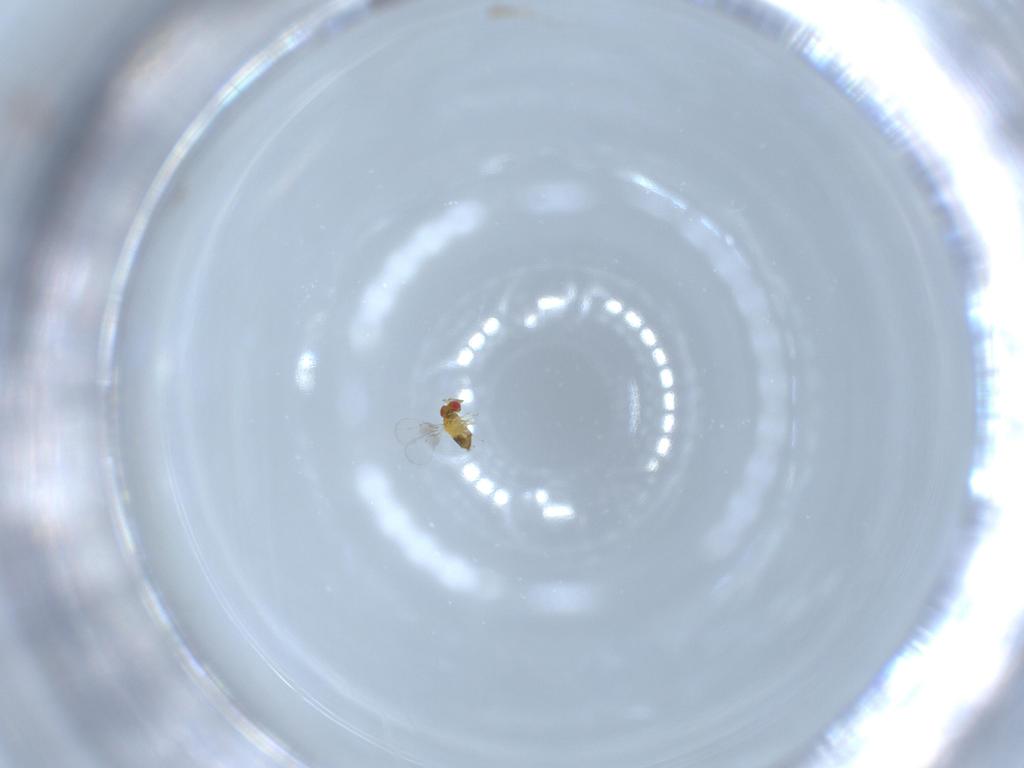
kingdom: Animalia
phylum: Arthropoda
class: Insecta
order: Hymenoptera
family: Trichogrammatidae
